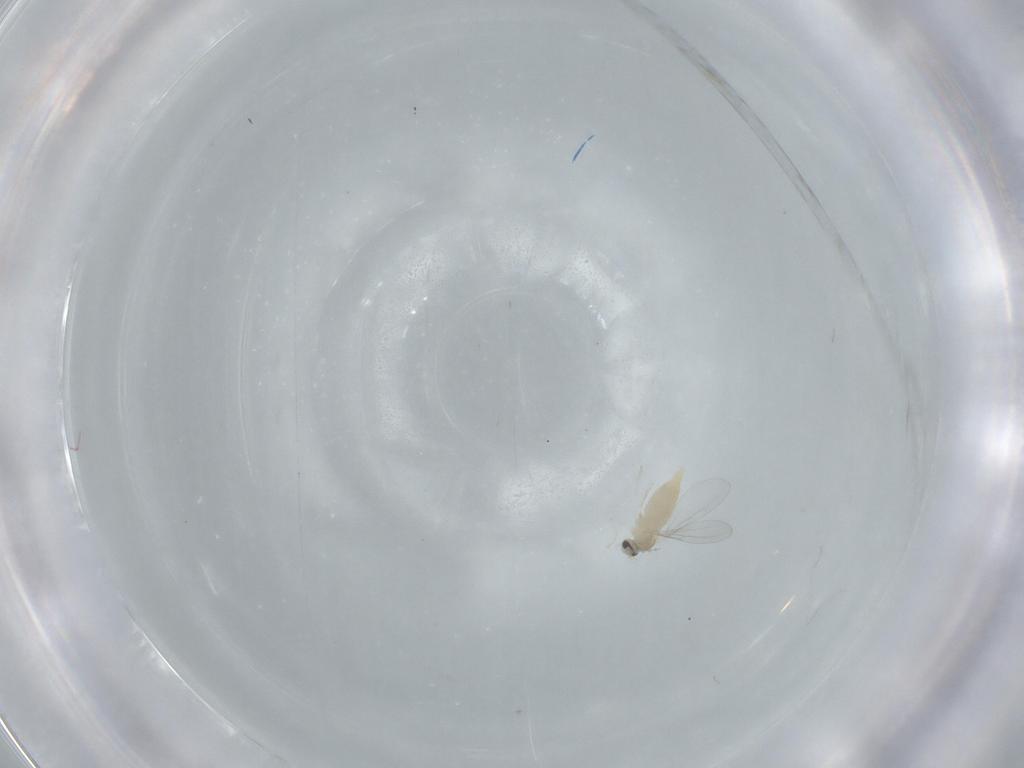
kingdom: Animalia
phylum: Arthropoda
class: Insecta
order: Diptera
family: Cecidomyiidae
